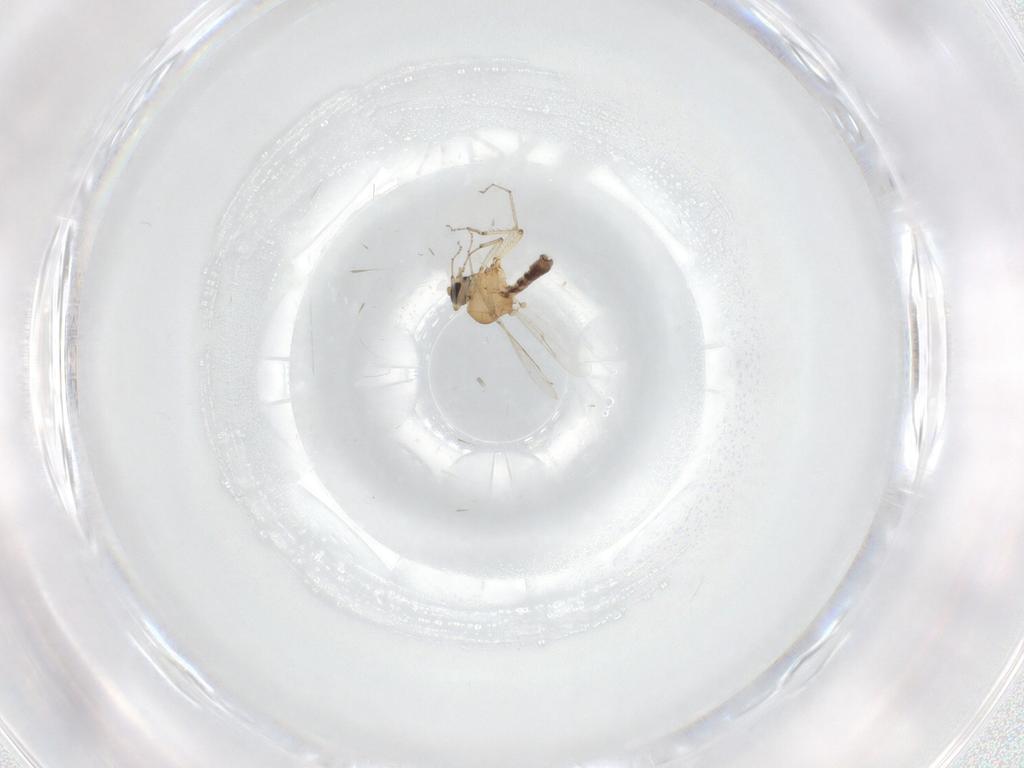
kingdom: Animalia
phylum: Arthropoda
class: Insecta
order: Diptera
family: Ceratopogonidae
